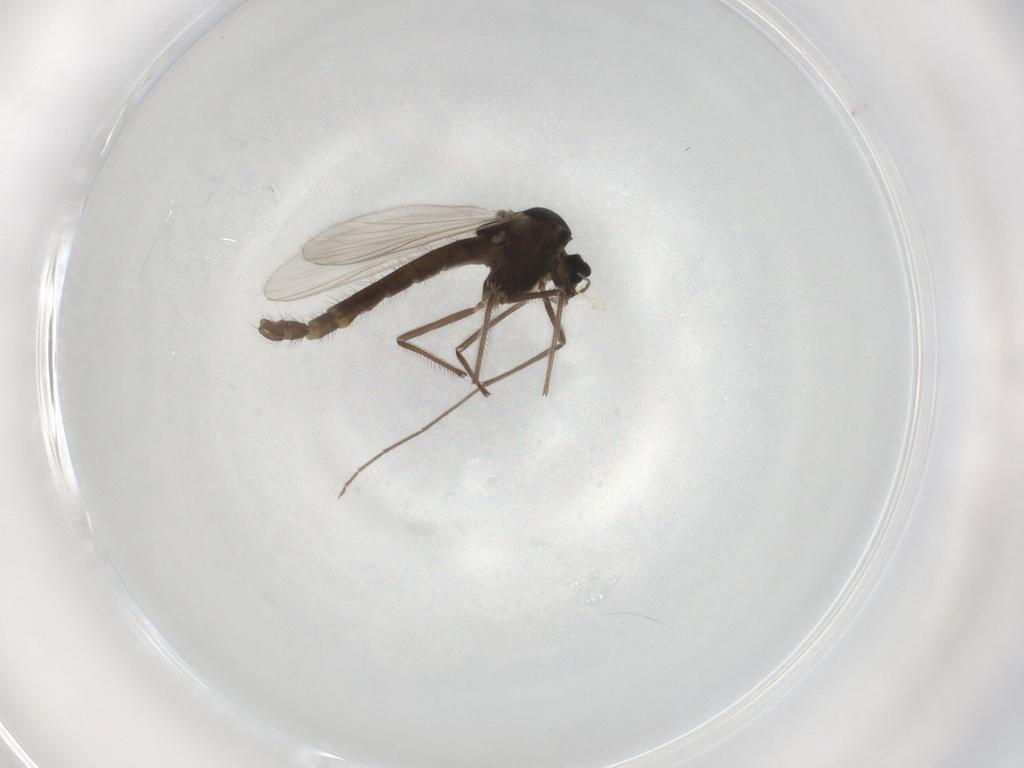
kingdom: Animalia
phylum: Arthropoda
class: Insecta
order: Diptera
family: Chironomidae
